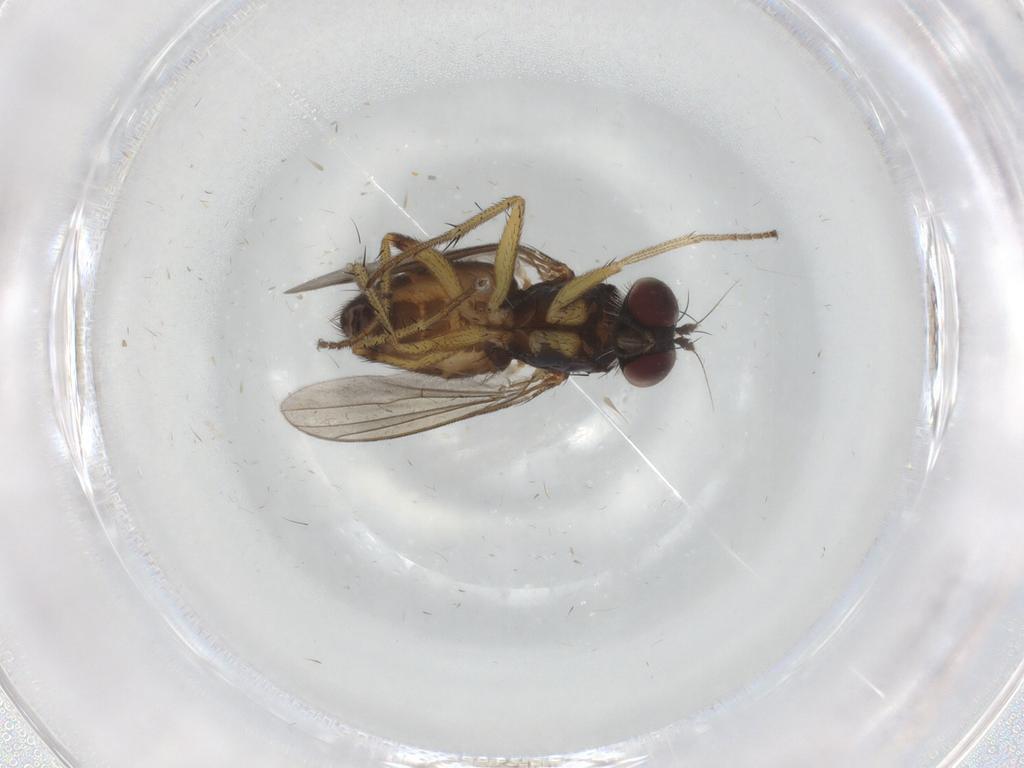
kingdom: Animalia
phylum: Arthropoda
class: Insecta
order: Diptera
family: Dolichopodidae
